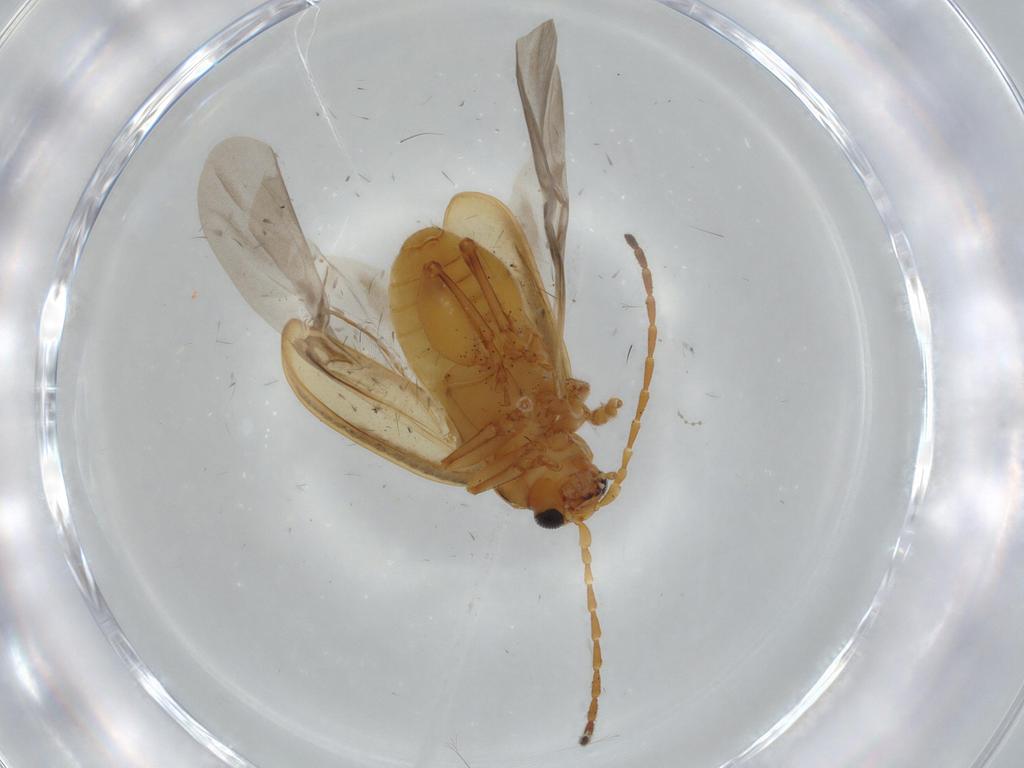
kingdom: Animalia
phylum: Arthropoda
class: Insecta
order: Coleoptera
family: Chrysomelidae
